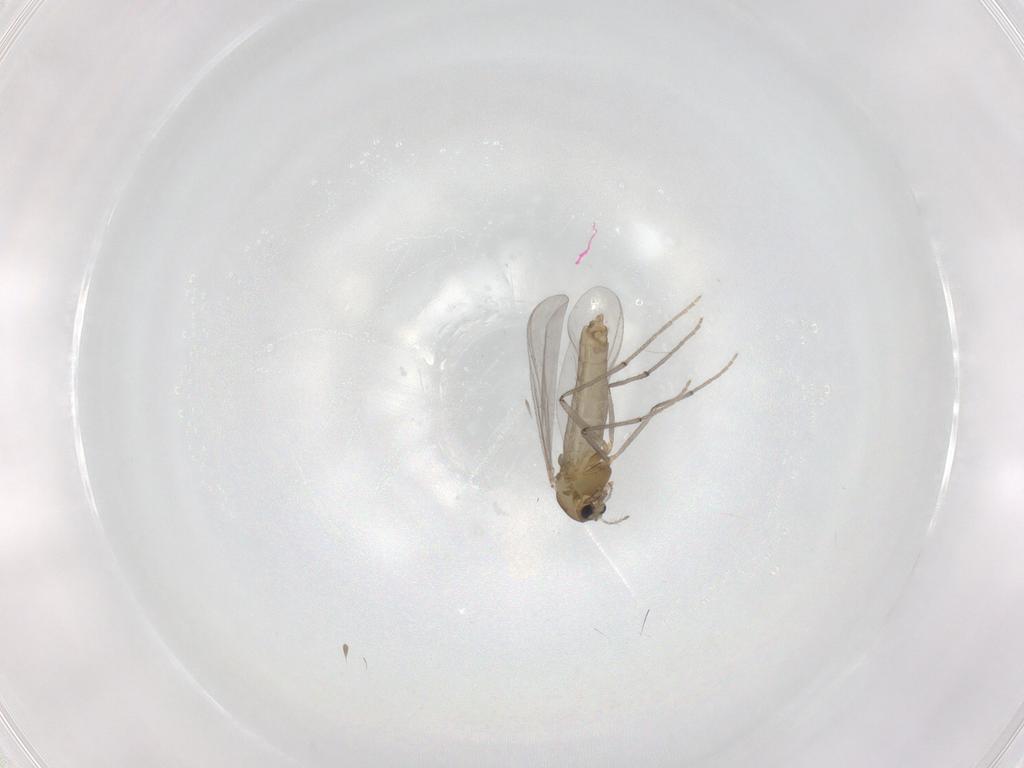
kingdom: Animalia
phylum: Arthropoda
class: Insecta
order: Diptera
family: Chironomidae
